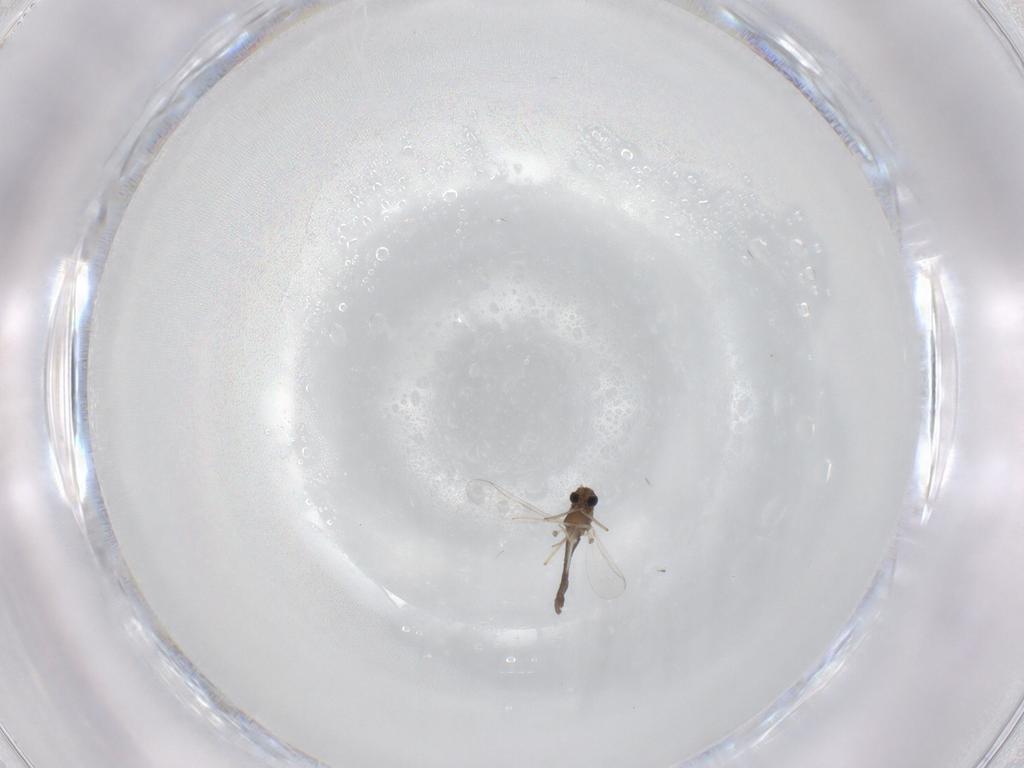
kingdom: Animalia
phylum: Arthropoda
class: Insecta
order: Diptera
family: Chironomidae
